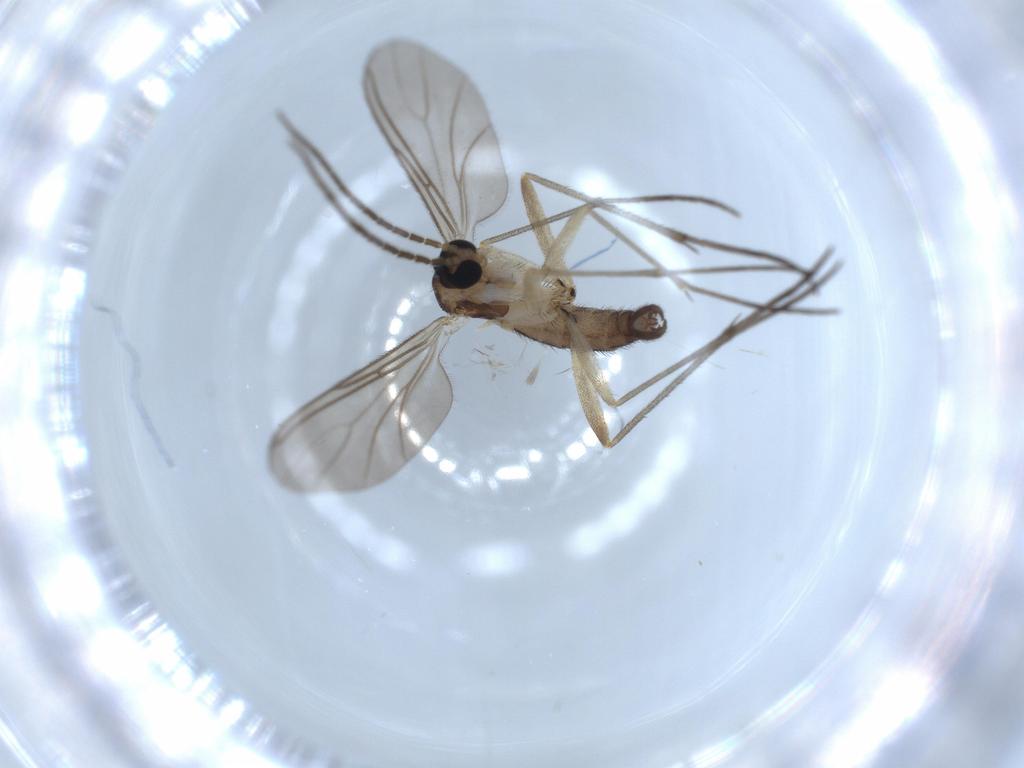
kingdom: Animalia
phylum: Arthropoda
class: Insecta
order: Diptera
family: Sciaridae
